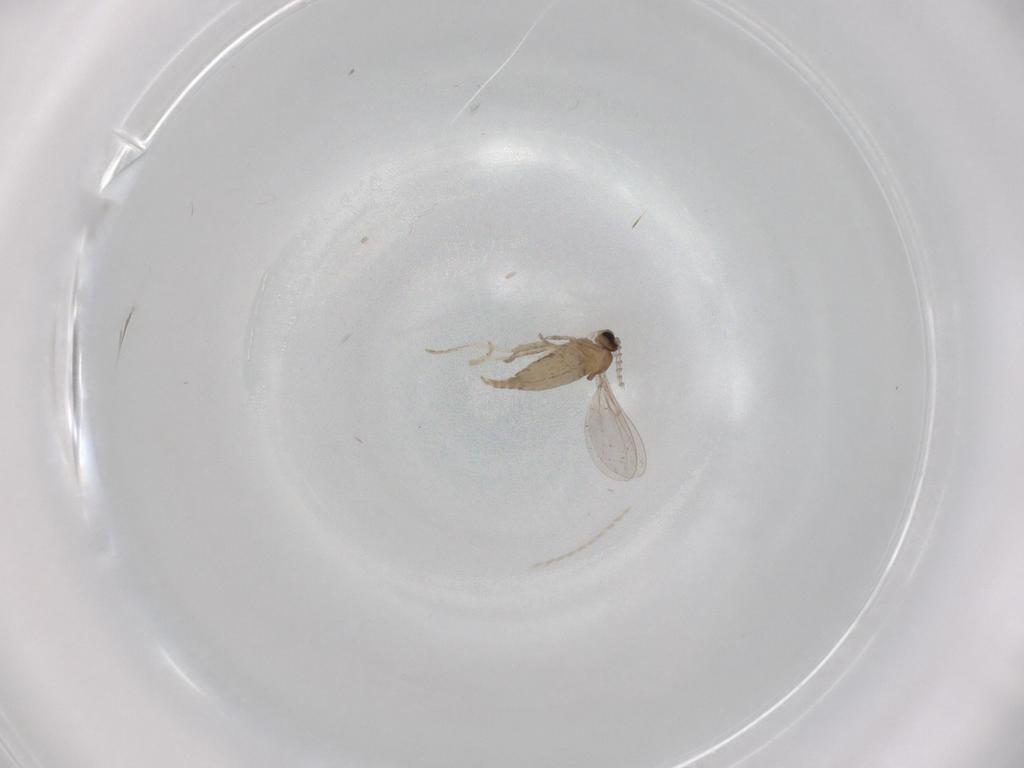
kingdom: Animalia
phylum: Arthropoda
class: Insecta
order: Diptera
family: Cecidomyiidae
